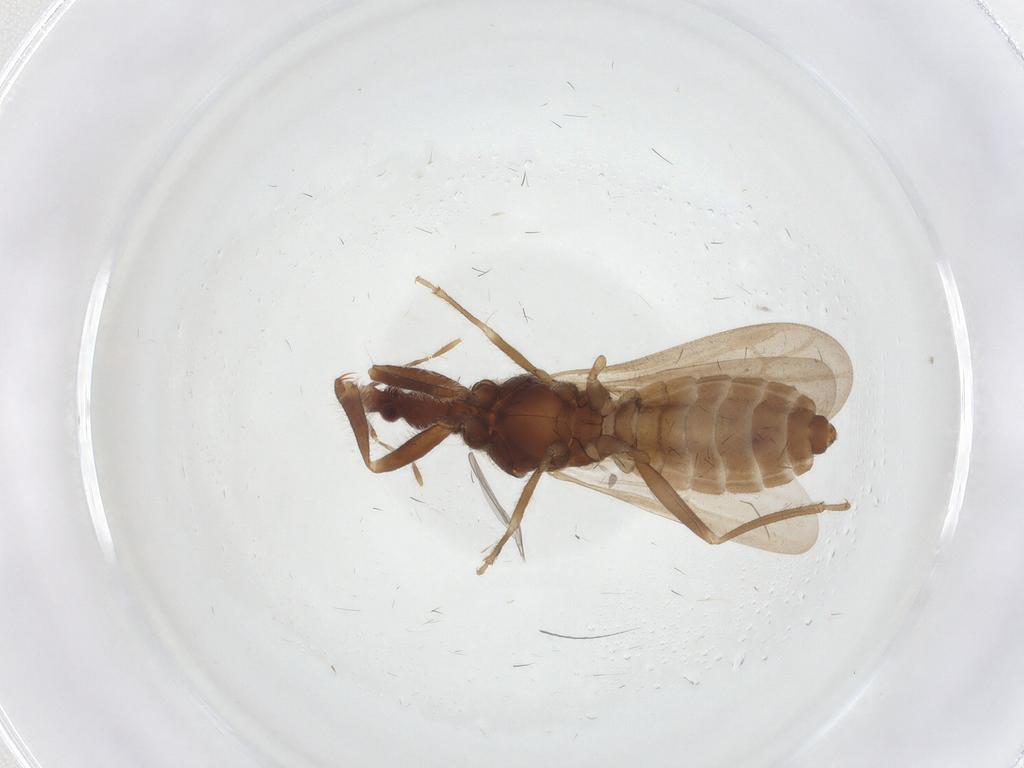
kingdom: Animalia
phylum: Arthropoda
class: Insecta
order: Hemiptera
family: Enicocephalidae
